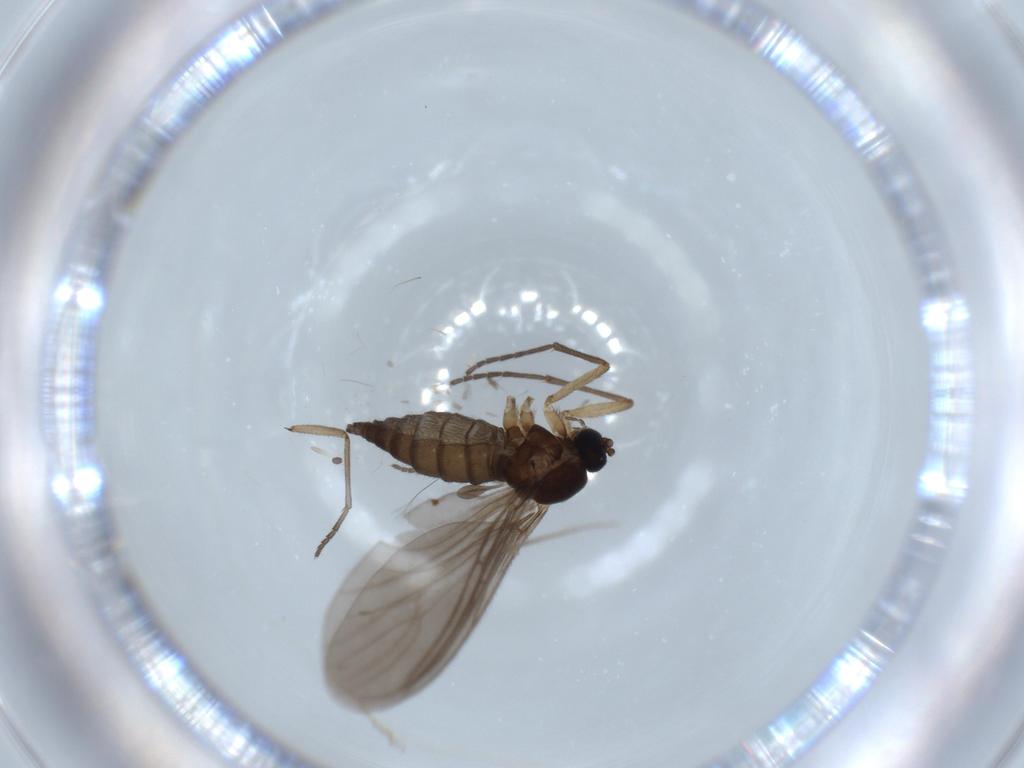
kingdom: Animalia
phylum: Arthropoda
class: Insecta
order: Diptera
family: Sciaridae
